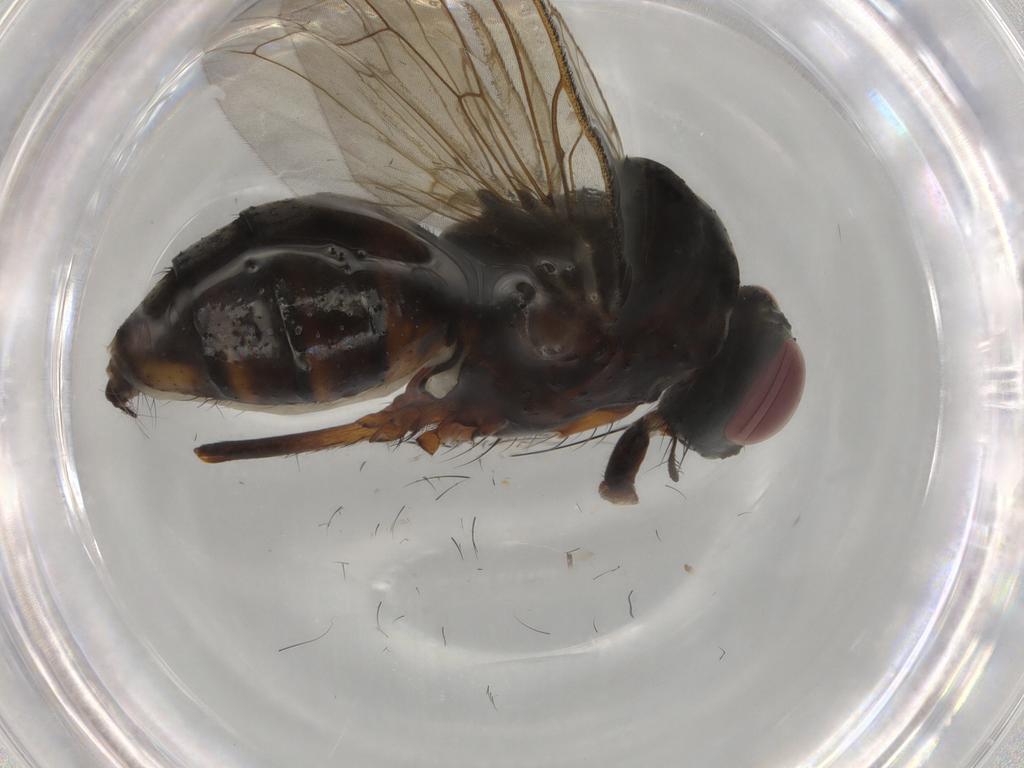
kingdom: Animalia
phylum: Arthropoda
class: Insecta
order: Diptera
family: Anthomyiidae
